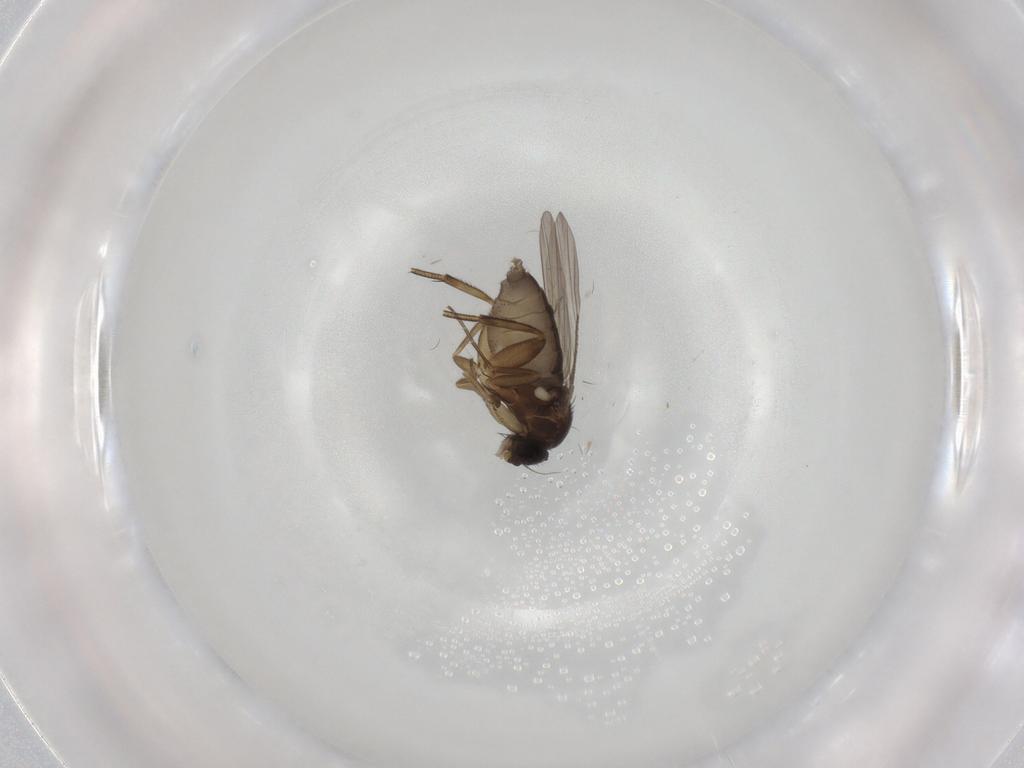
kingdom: Animalia
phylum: Arthropoda
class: Insecta
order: Diptera
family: Phoridae
